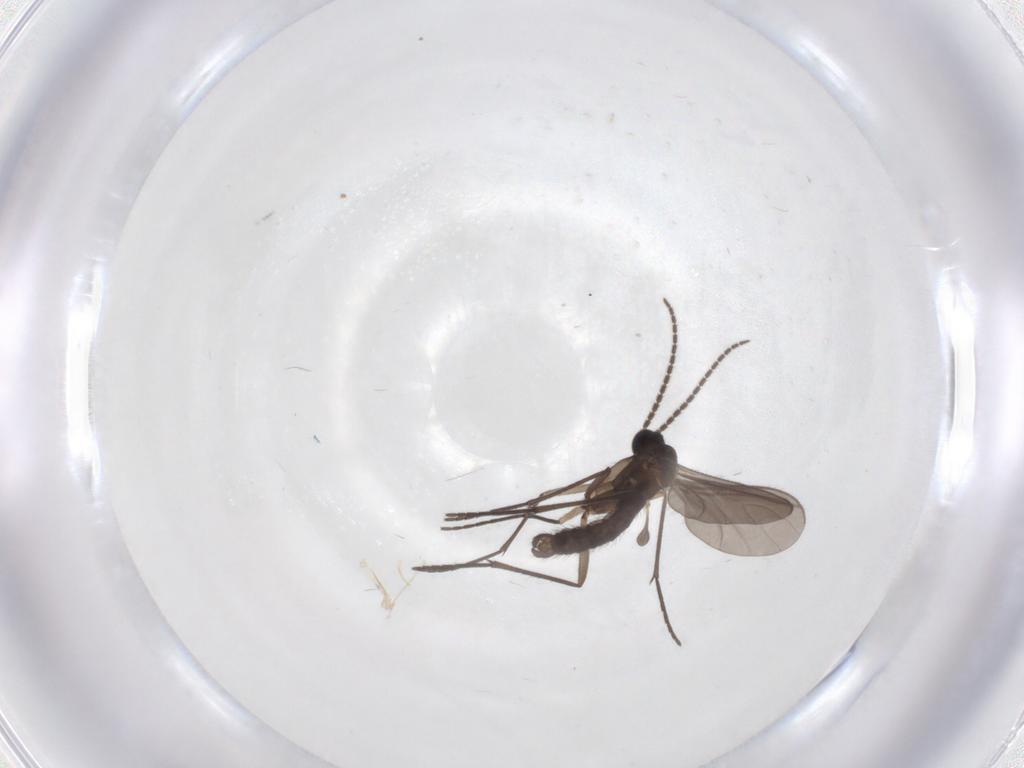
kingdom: Animalia
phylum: Arthropoda
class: Insecta
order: Diptera
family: Sciaridae
